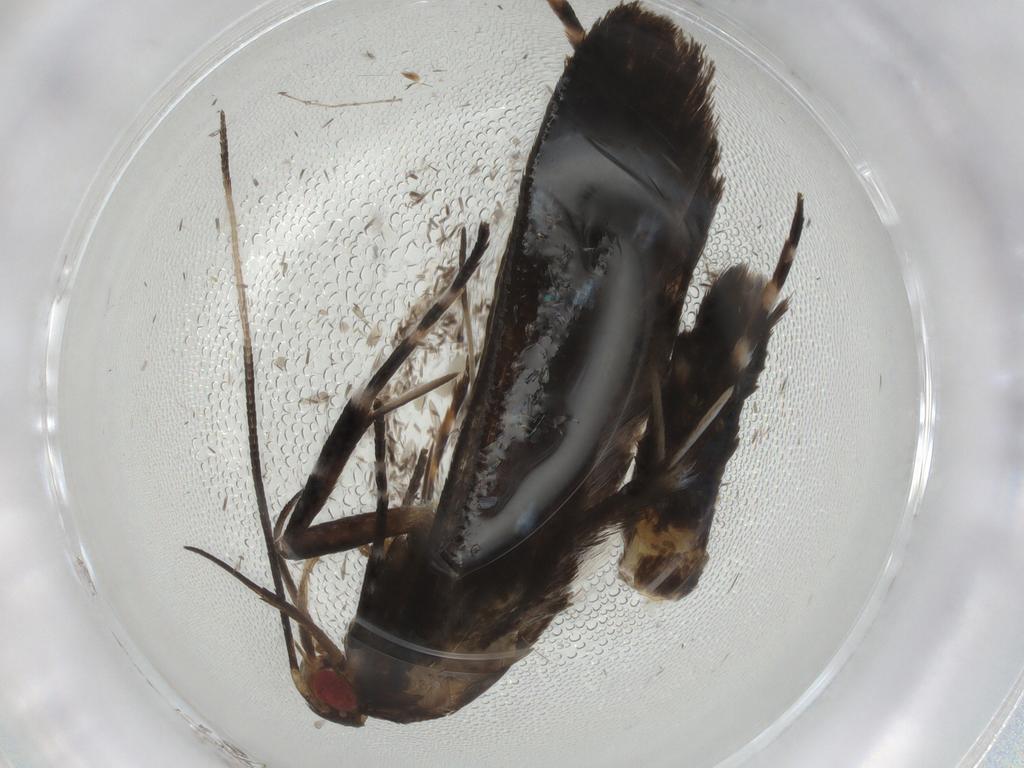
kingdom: Animalia
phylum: Arthropoda
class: Insecta
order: Lepidoptera
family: Gelechiidae
